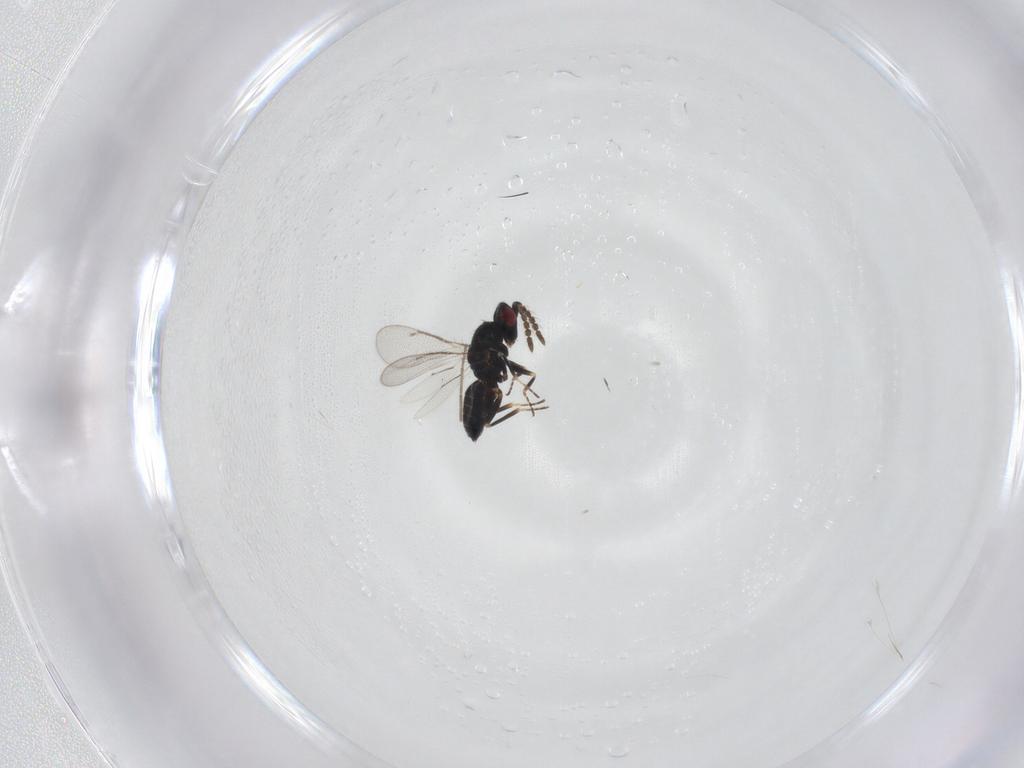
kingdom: Animalia
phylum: Arthropoda
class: Insecta
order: Hymenoptera
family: Eulophidae
